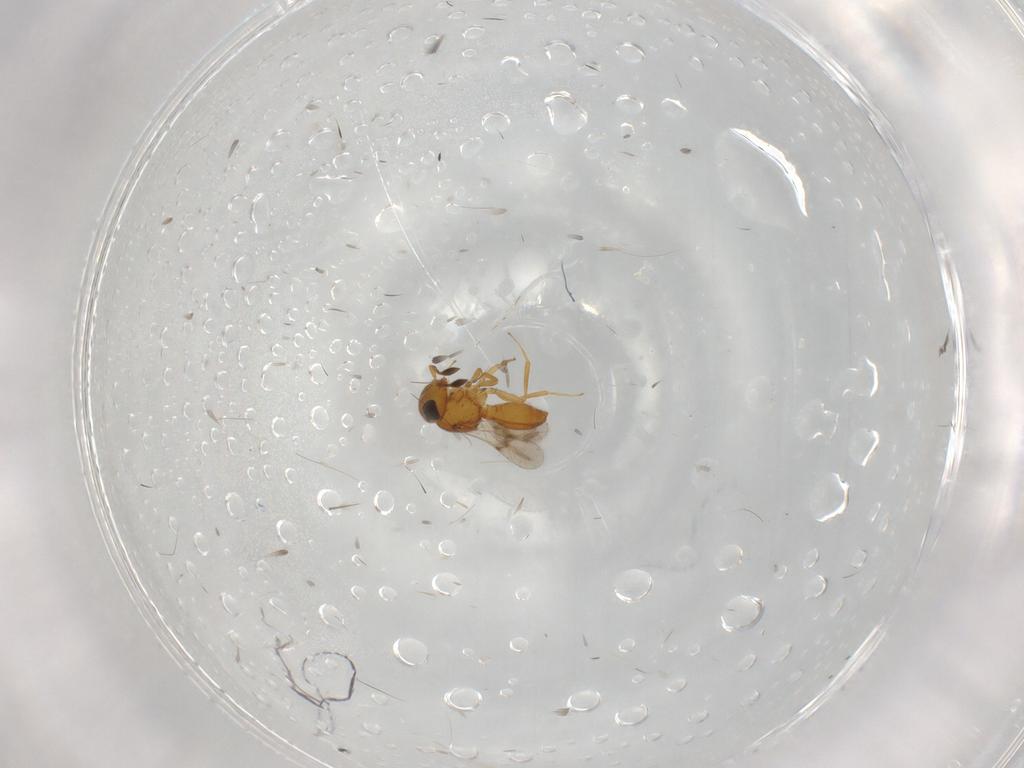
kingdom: Animalia
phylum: Arthropoda
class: Insecta
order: Hymenoptera
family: Scelionidae
